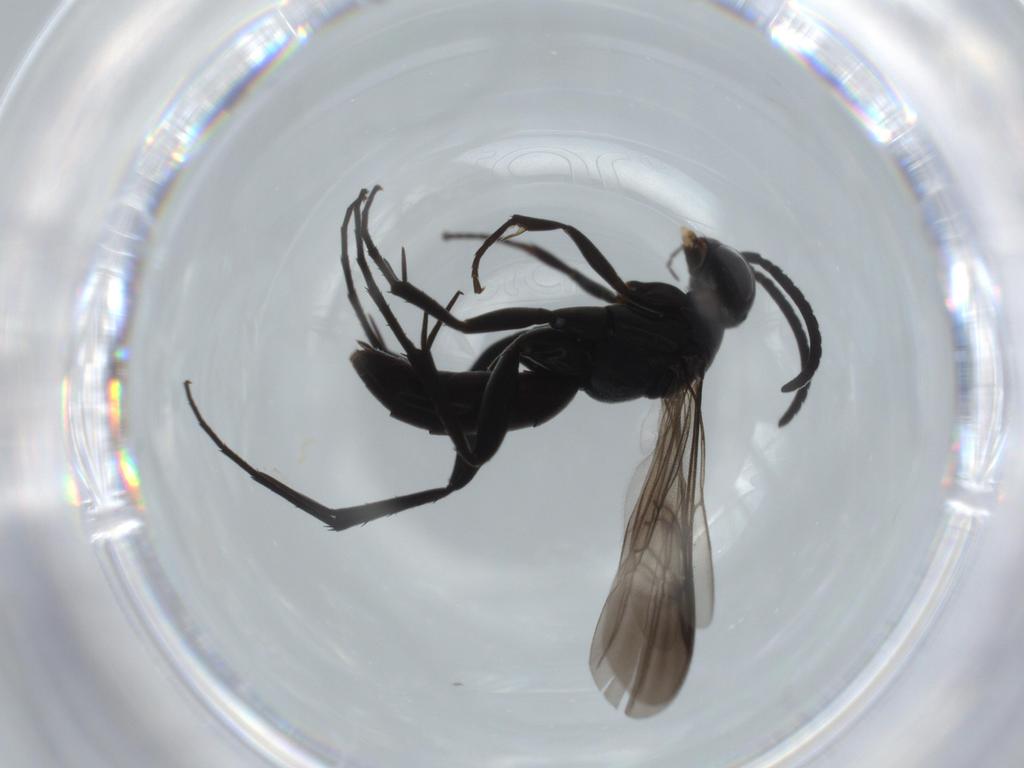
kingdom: Animalia
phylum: Arthropoda
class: Insecta
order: Hymenoptera
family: Pompilidae
